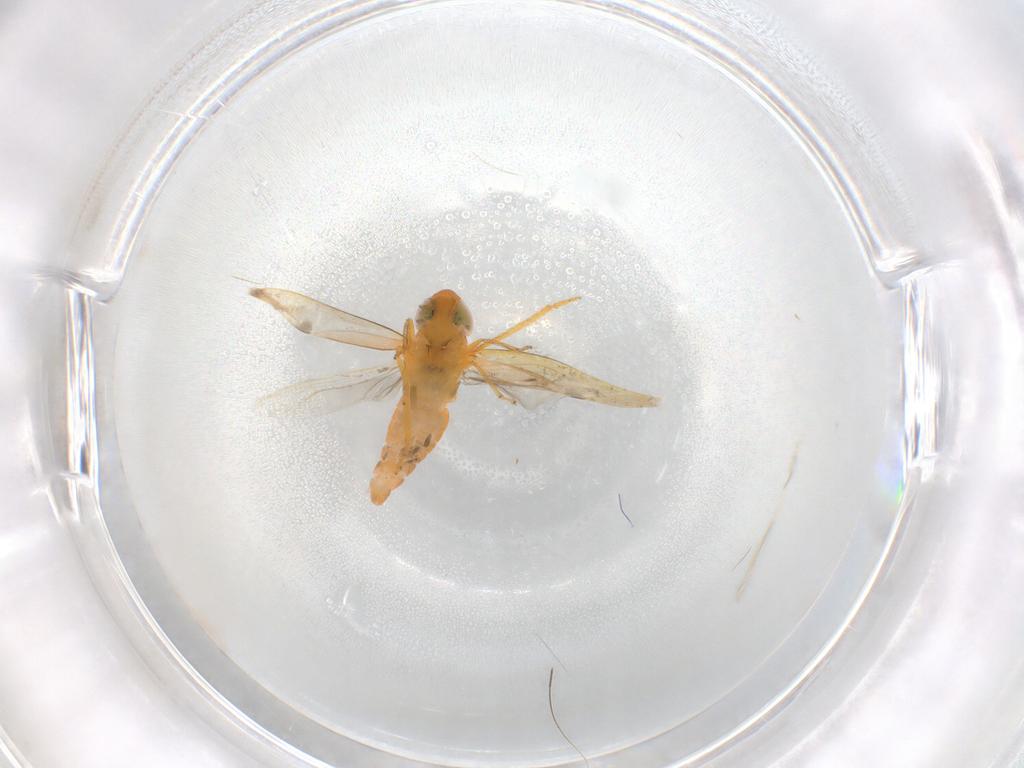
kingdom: Animalia
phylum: Arthropoda
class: Insecta
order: Hemiptera
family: Cicadellidae
